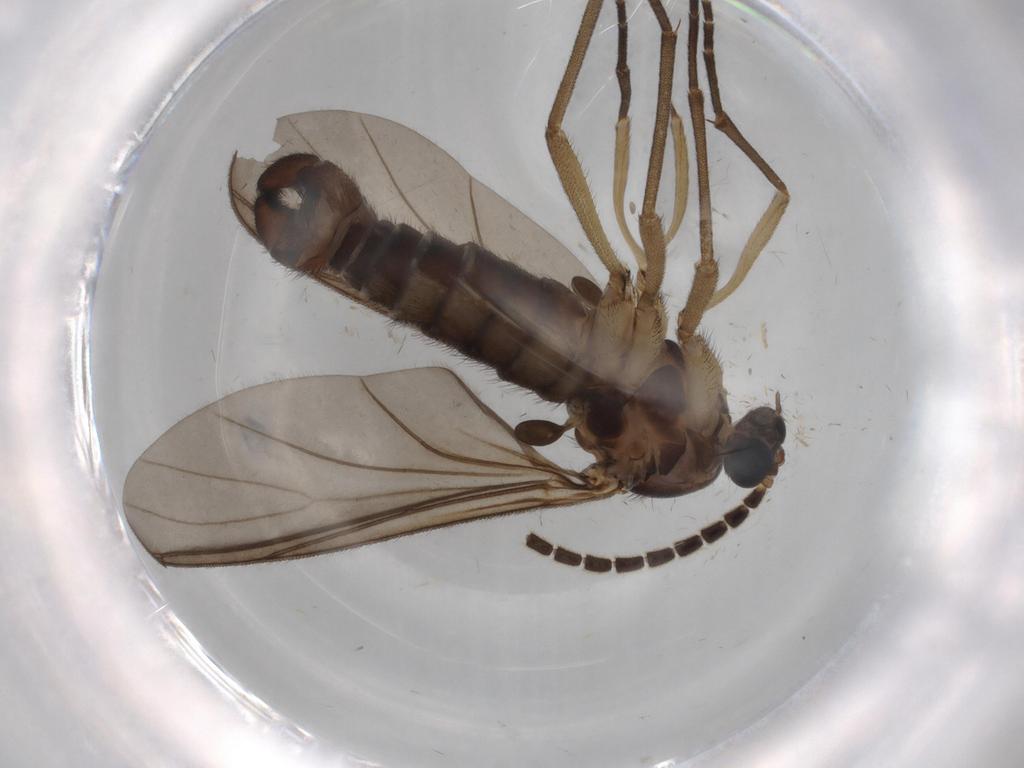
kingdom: Animalia
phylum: Arthropoda
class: Insecta
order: Diptera
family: Phoridae
